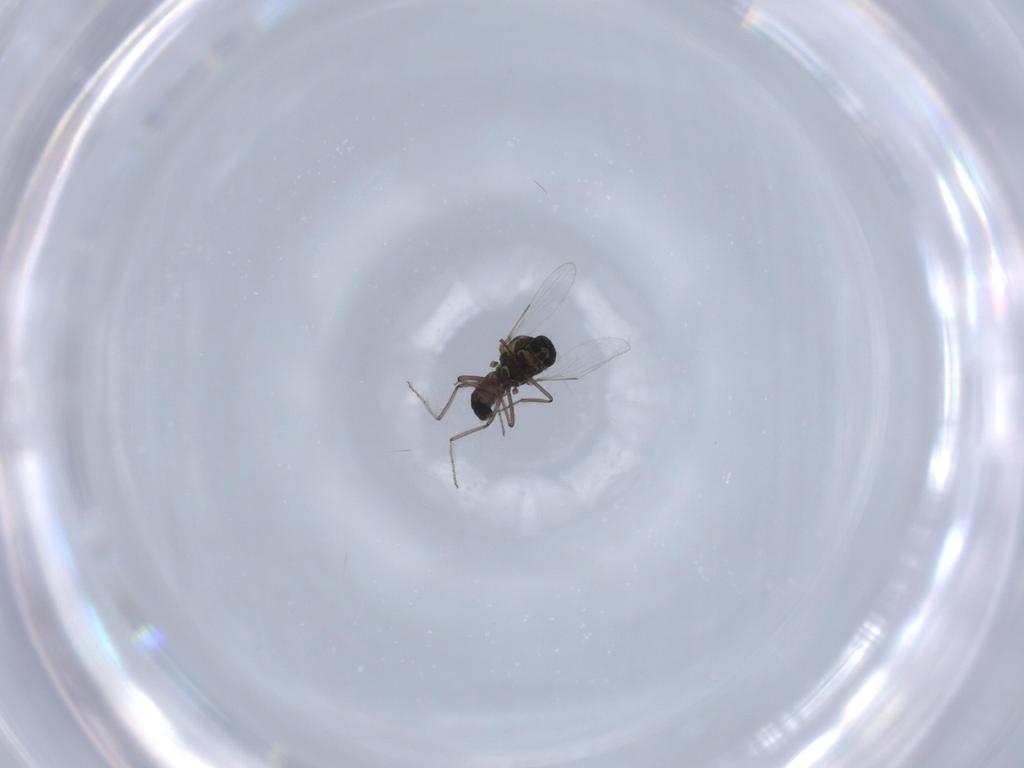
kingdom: Animalia
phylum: Arthropoda
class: Insecta
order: Diptera
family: Ceratopogonidae
